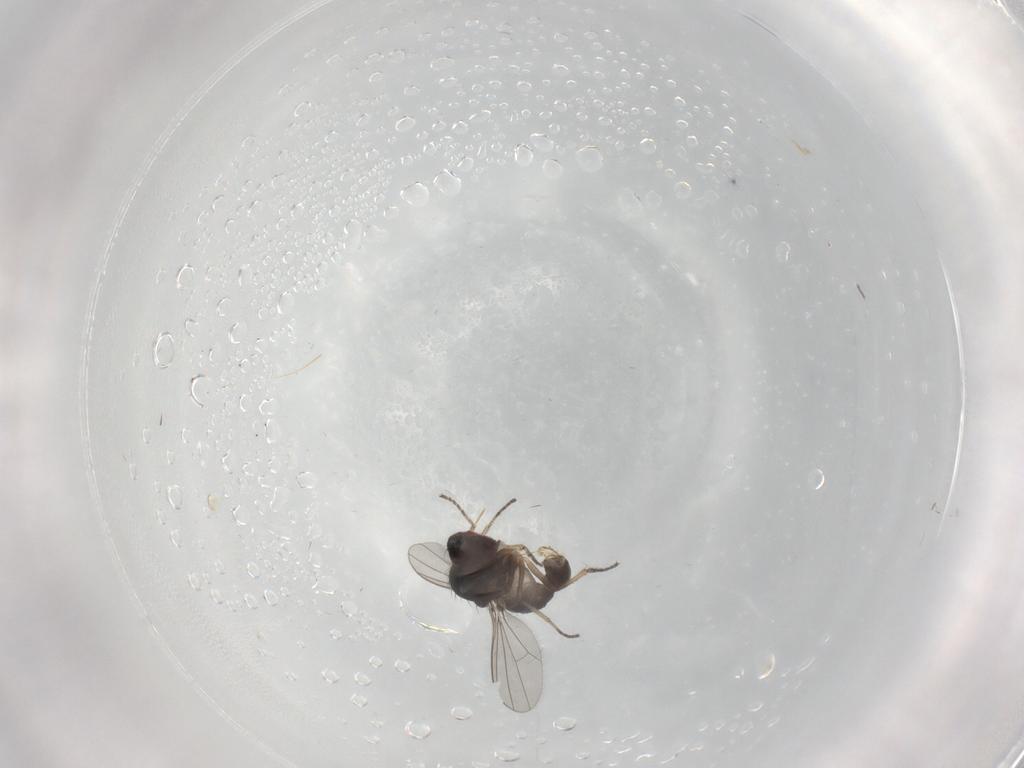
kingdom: Animalia
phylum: Arthropoda
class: Insecta
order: Diptera
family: Dolichopodidae
